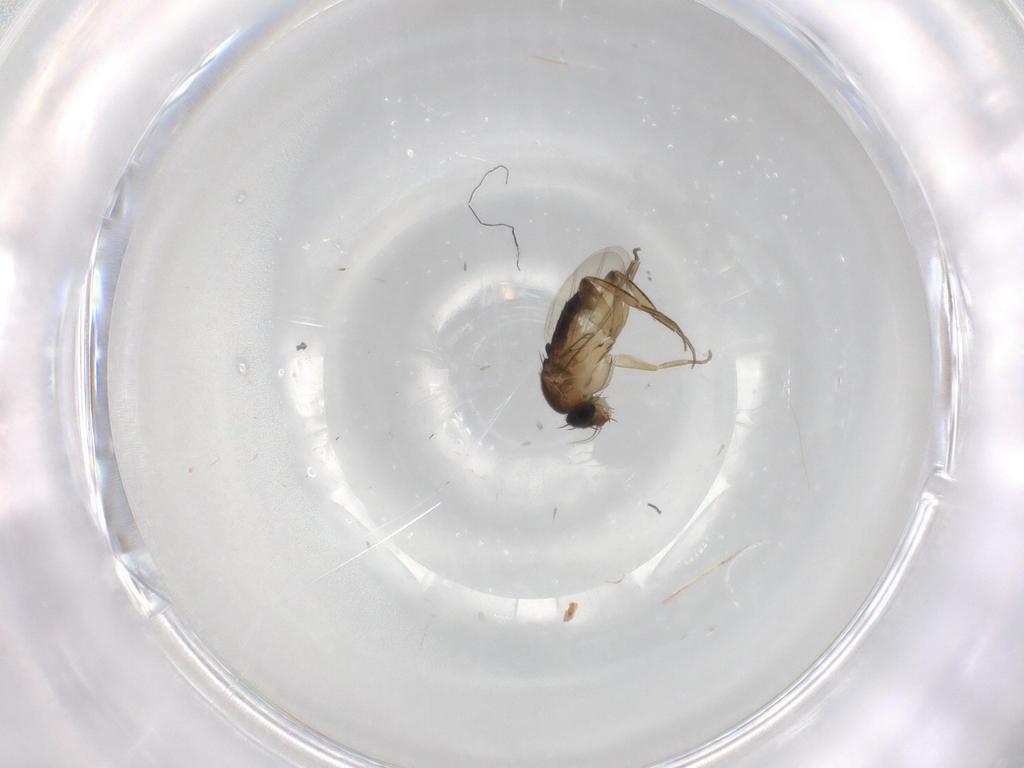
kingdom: Animalia
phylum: Arthropoda
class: Insecta
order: Diptera
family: Phoridae
